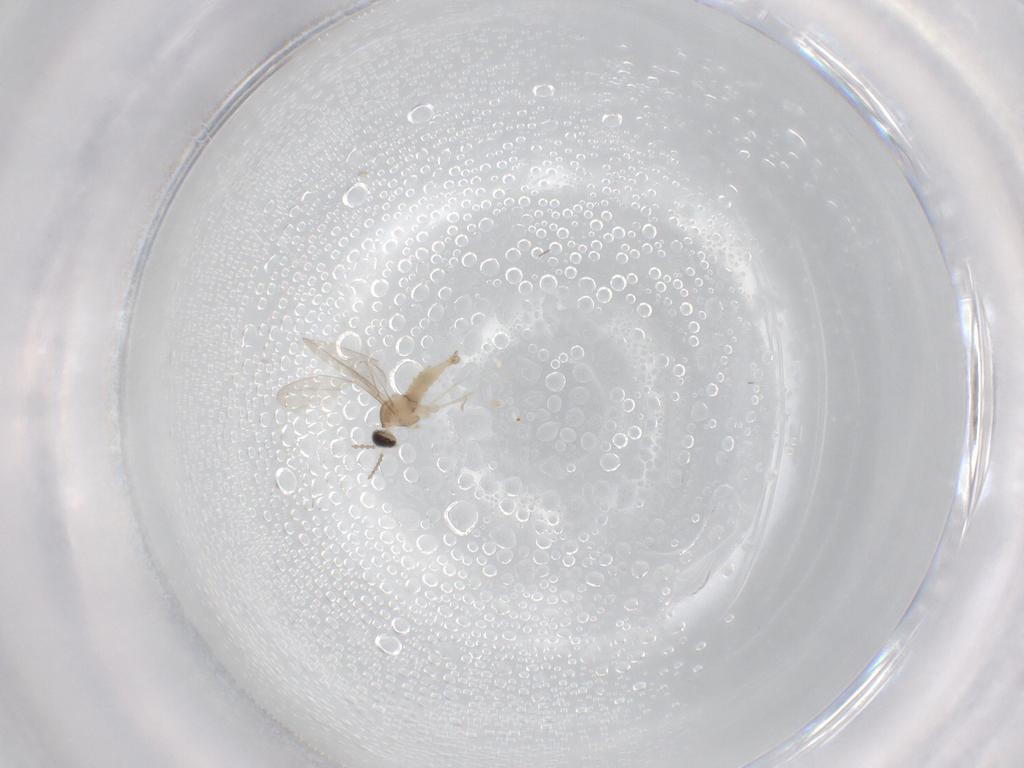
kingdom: Animalia
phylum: Arthropoda
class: Insecta
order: Diptera
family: Cecidomyiidae
